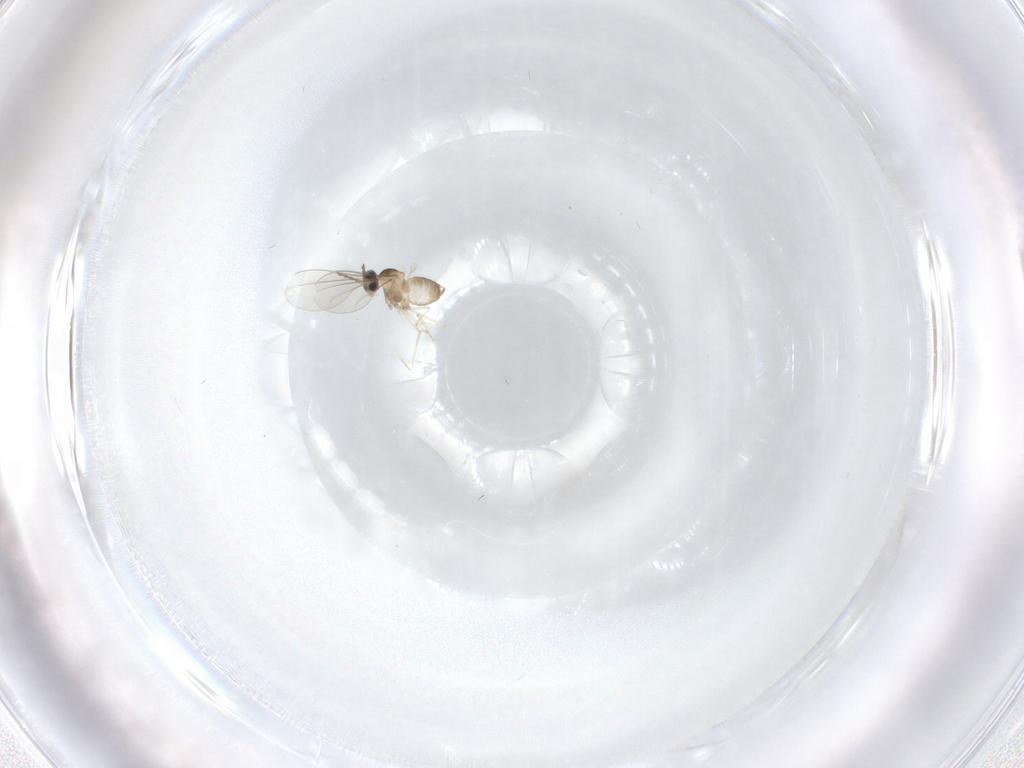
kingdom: Animalia
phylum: Arthropoda
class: Insecta
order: Diptera
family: Cecidomyiidae
